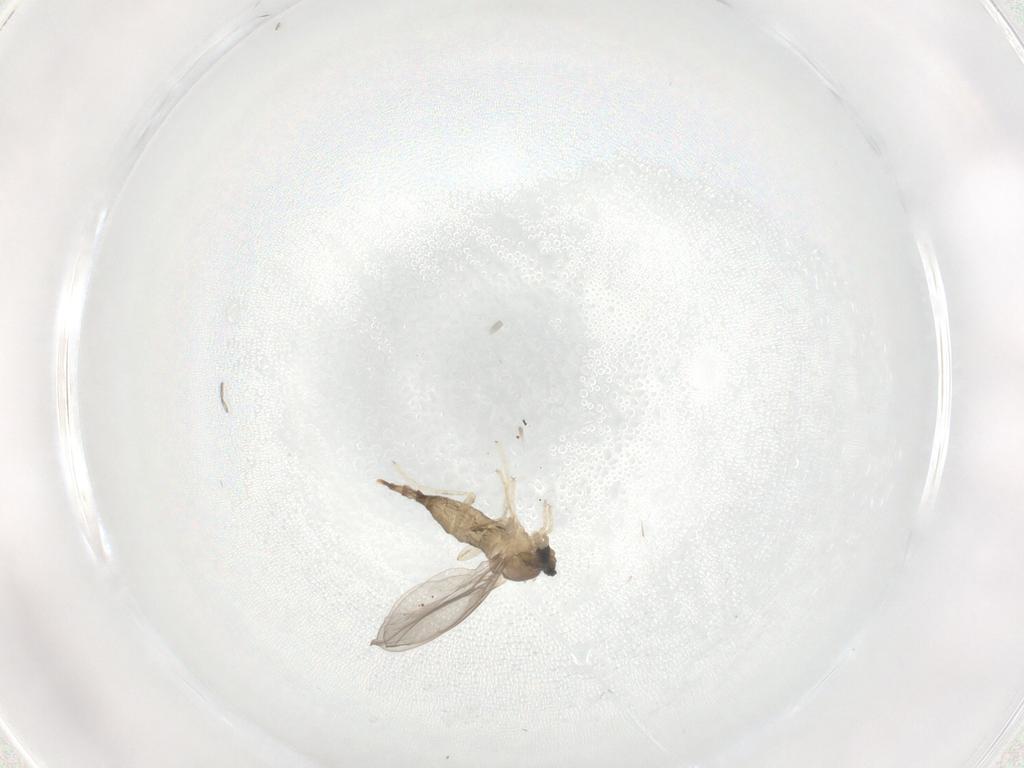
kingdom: Animalia
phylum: Arthropoda
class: Insecta
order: Diptera
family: Cecidomyiidae
